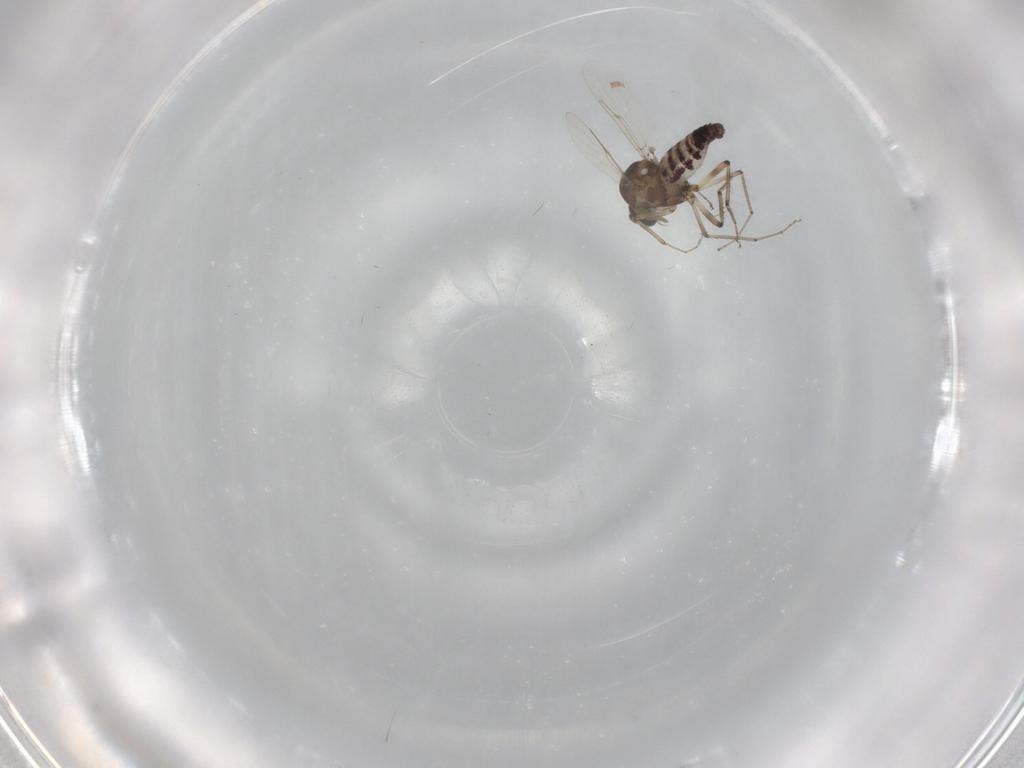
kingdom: Animalia
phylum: Arthropoda
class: Insecta
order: Diptera
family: Ceratopogonidae
